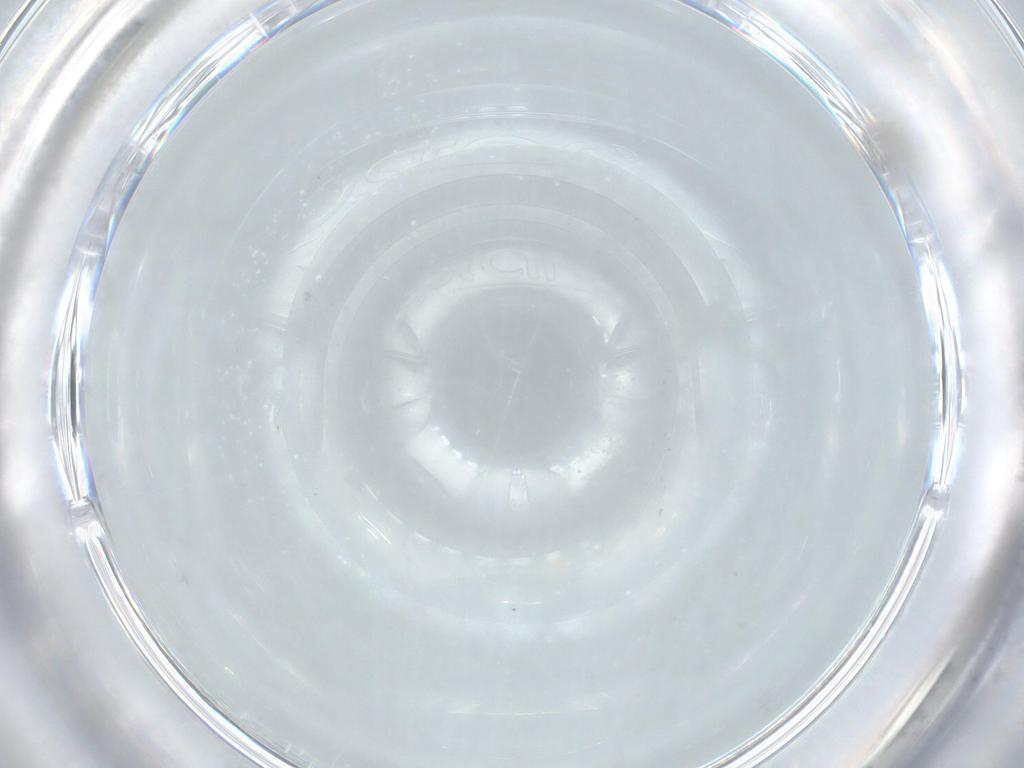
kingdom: Animalia
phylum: Arthropoda
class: Insecta
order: Diptera
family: Cecidomyiidae
